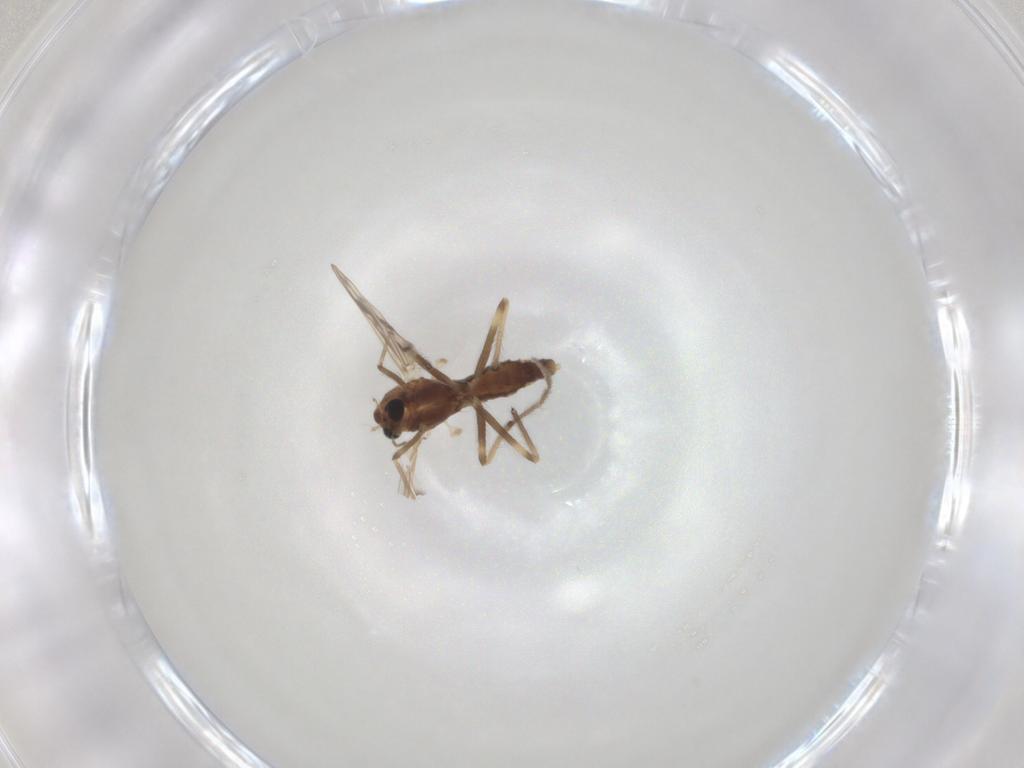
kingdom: Animalia
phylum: Arthropoda
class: Insecta
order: Diptera
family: Chironomidae
